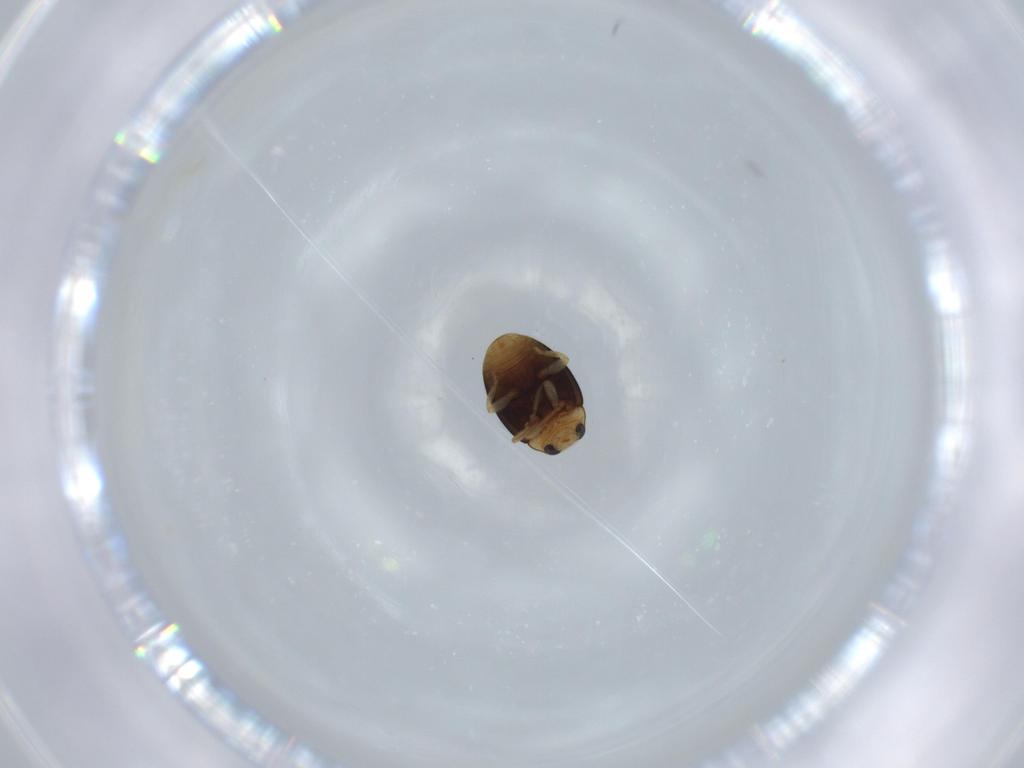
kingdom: Animalia
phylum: Arthropoda
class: Insecta
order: Coleoptera
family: Coccinellidae
